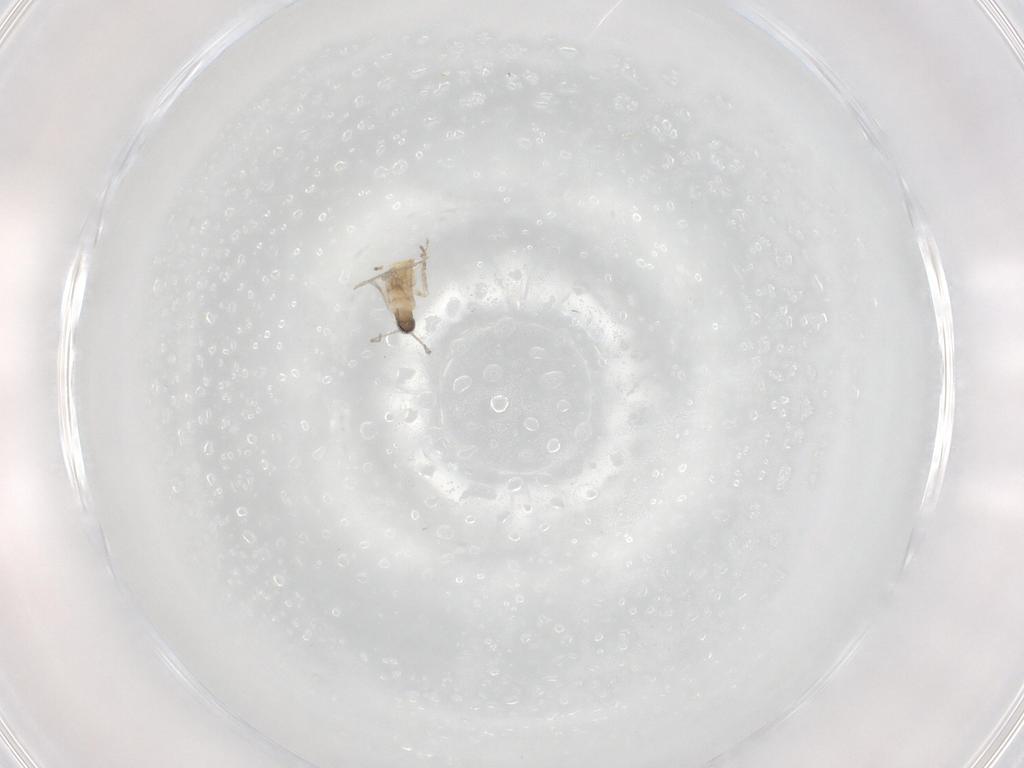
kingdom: Animalia
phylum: Arthropoda
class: Insecta
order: Diptera
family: Cecidomyiidae
